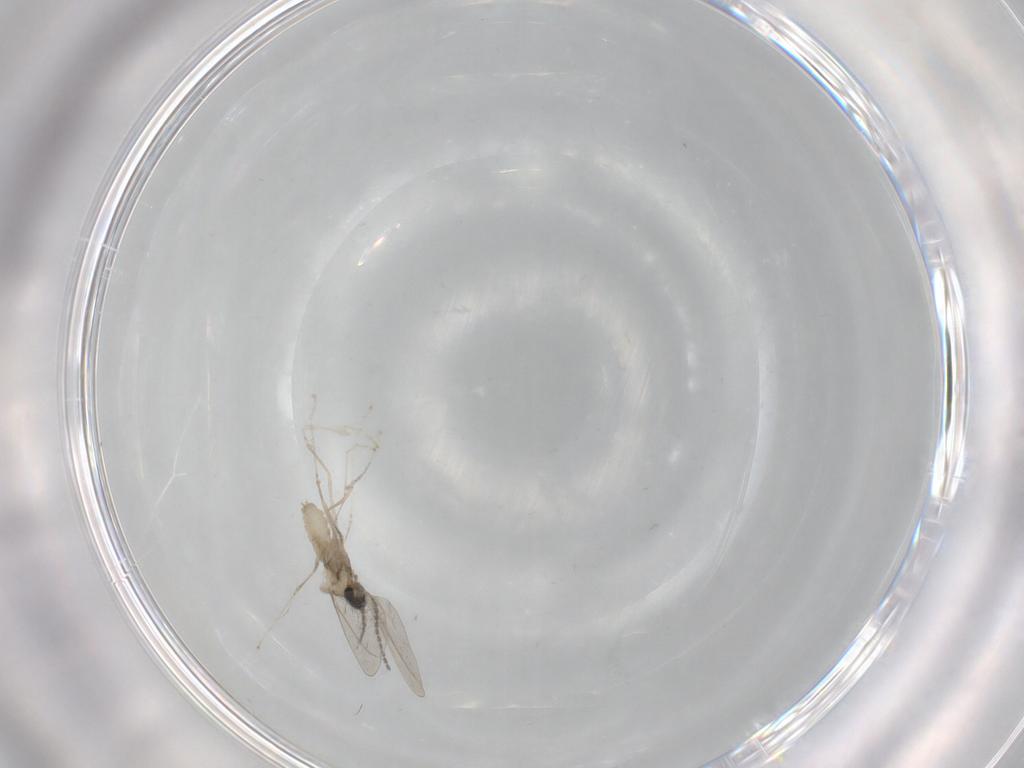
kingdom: Animalia
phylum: Arthropoda
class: Insecta
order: Diptera
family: Cecidomyiidae
